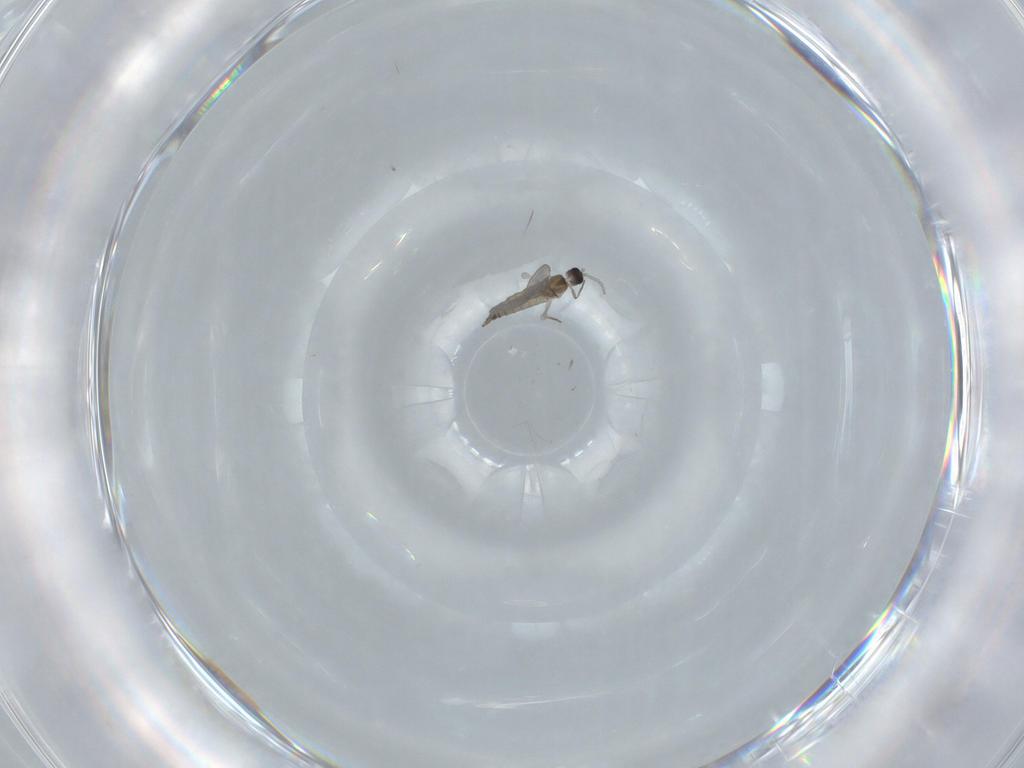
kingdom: Animalia
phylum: Arthropoda
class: Insecta
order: Diptera
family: Cecidomyiidae
